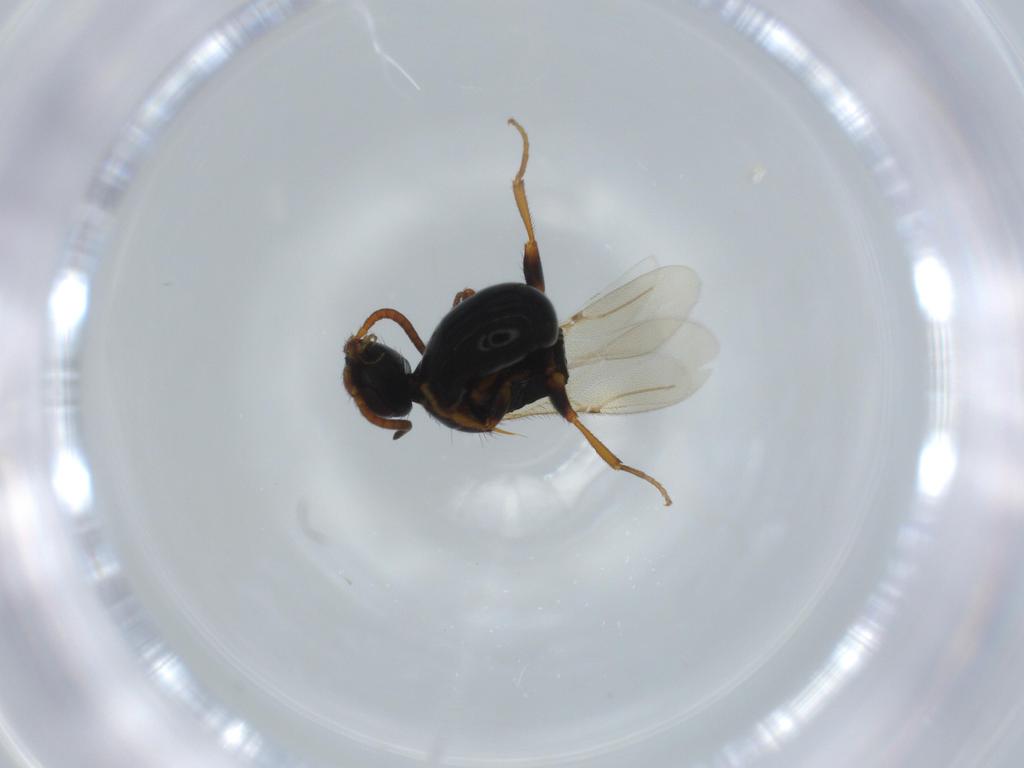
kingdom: Animalia
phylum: Arthropoda
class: Insecta
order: Hymenoptera
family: Bethylidae
